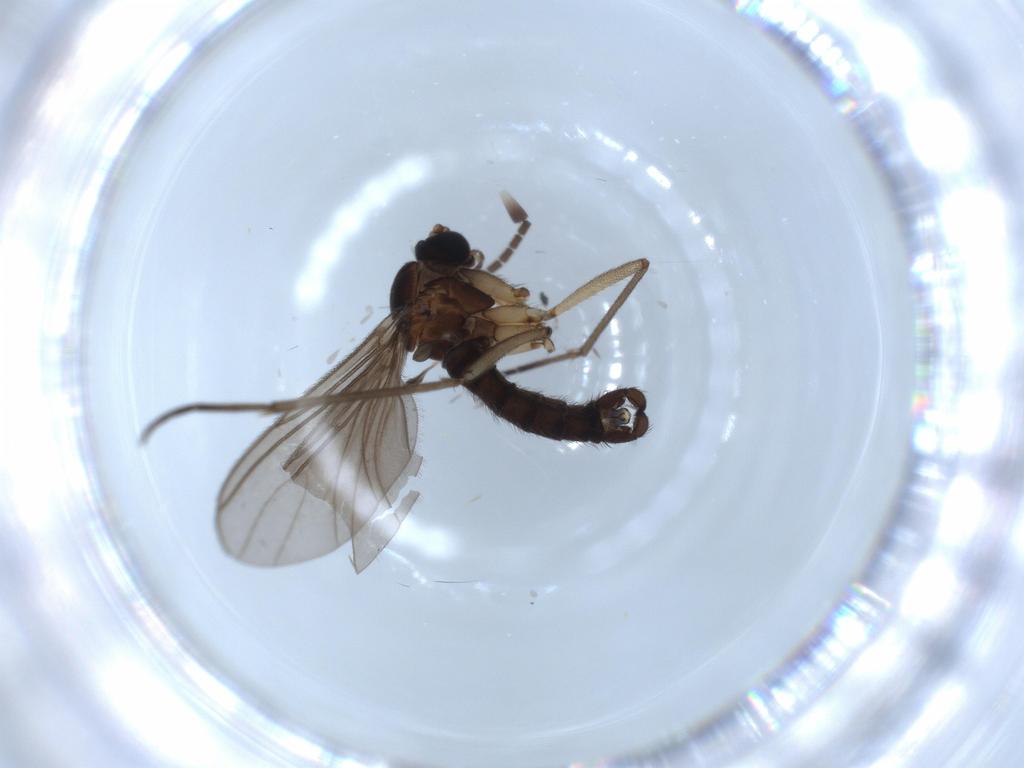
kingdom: Animalia
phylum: Arthropoda
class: Insecta
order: Diptera
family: Sciaridae
